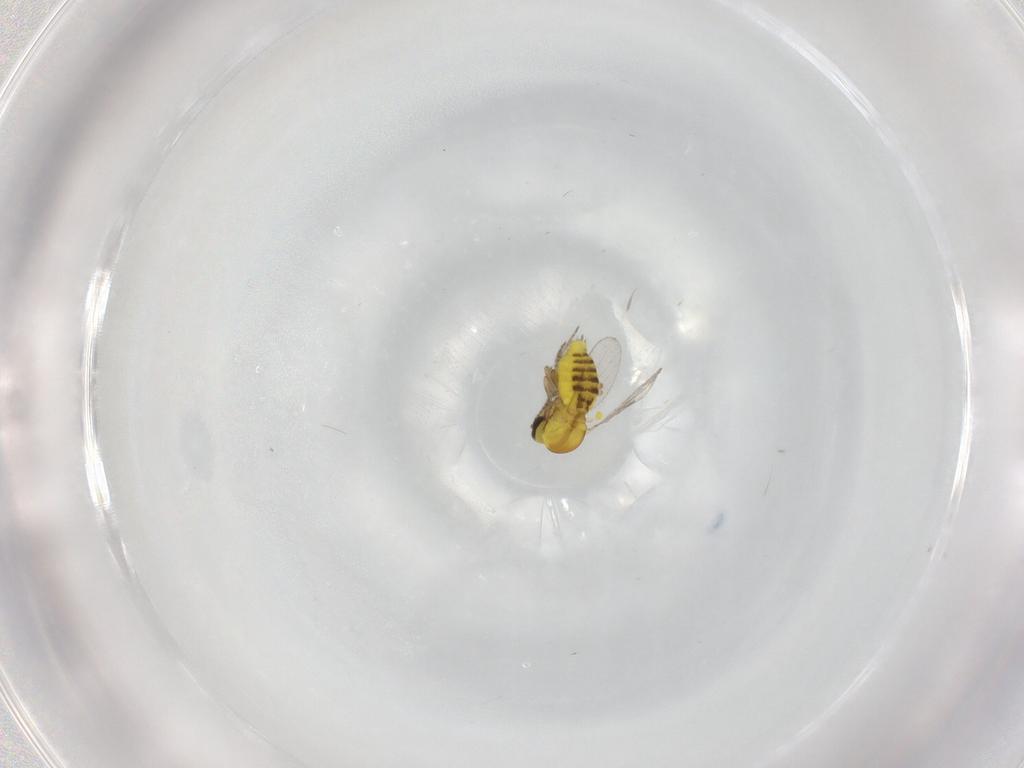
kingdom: Animalia
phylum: Arthropoda
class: Insecta
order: Diptera
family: Ceratopogonidae
